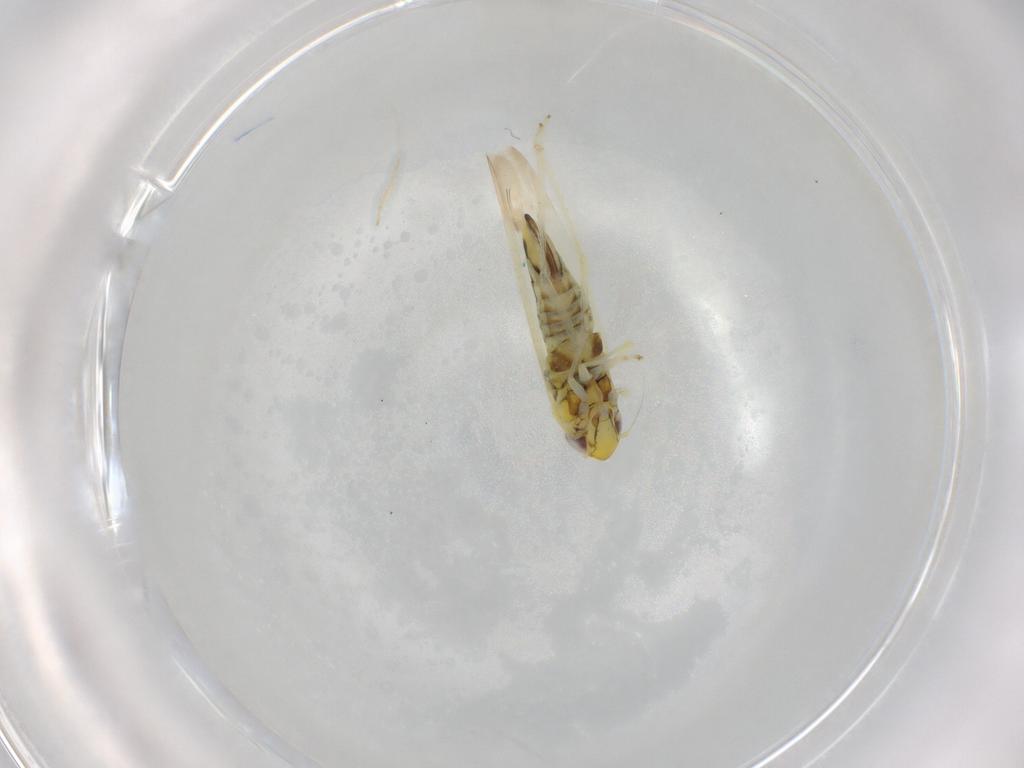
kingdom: Animalia
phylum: Arthropoda
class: Insecta
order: Hemiptera
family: Cicadellidae
